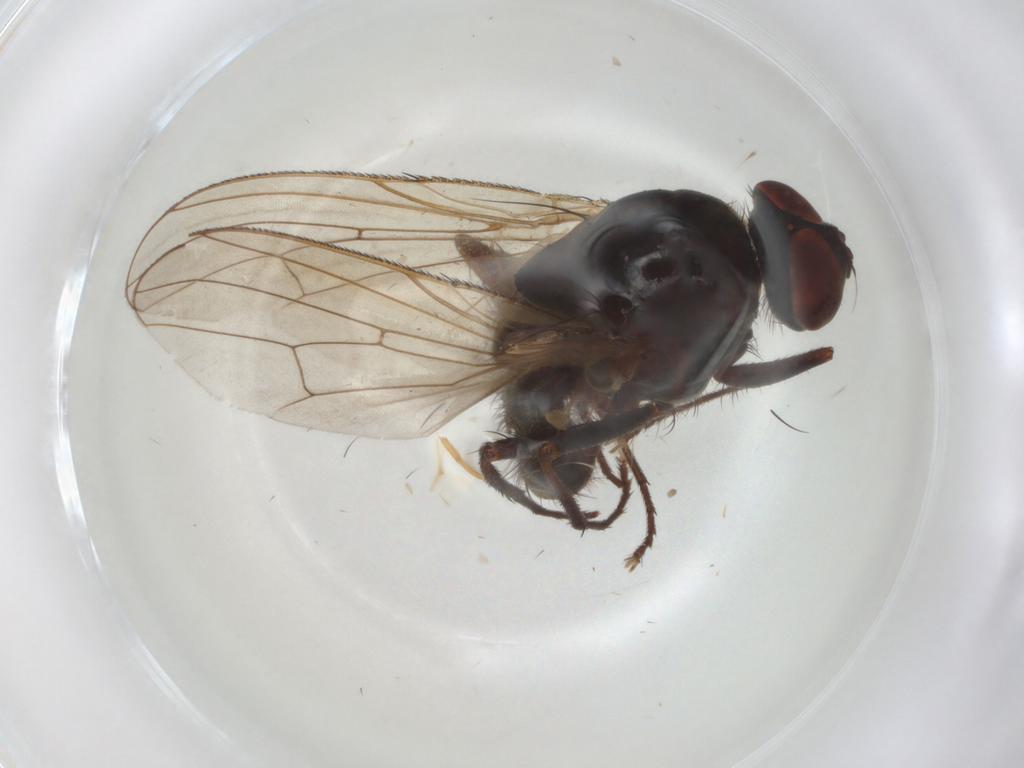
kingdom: Animalia
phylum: Arthropoda
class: Insecta
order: Diptera
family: Anthomyiidae
